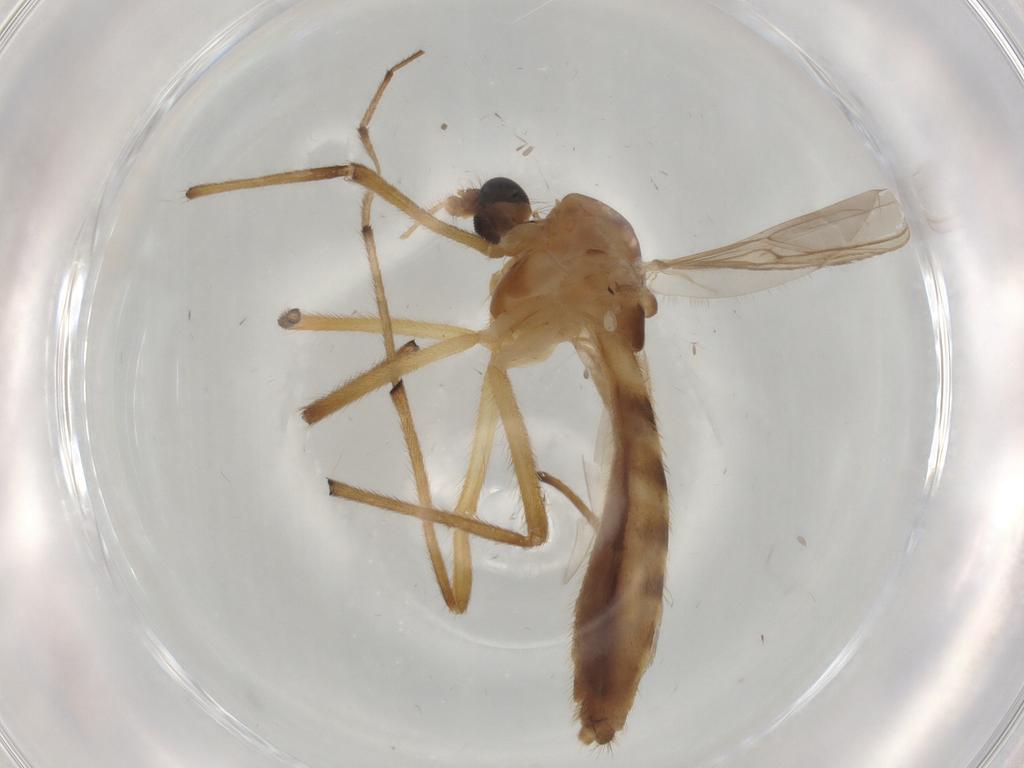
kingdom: Animalia
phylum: Arthropoda
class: Insecta
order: Diptera
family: Chironomidae
